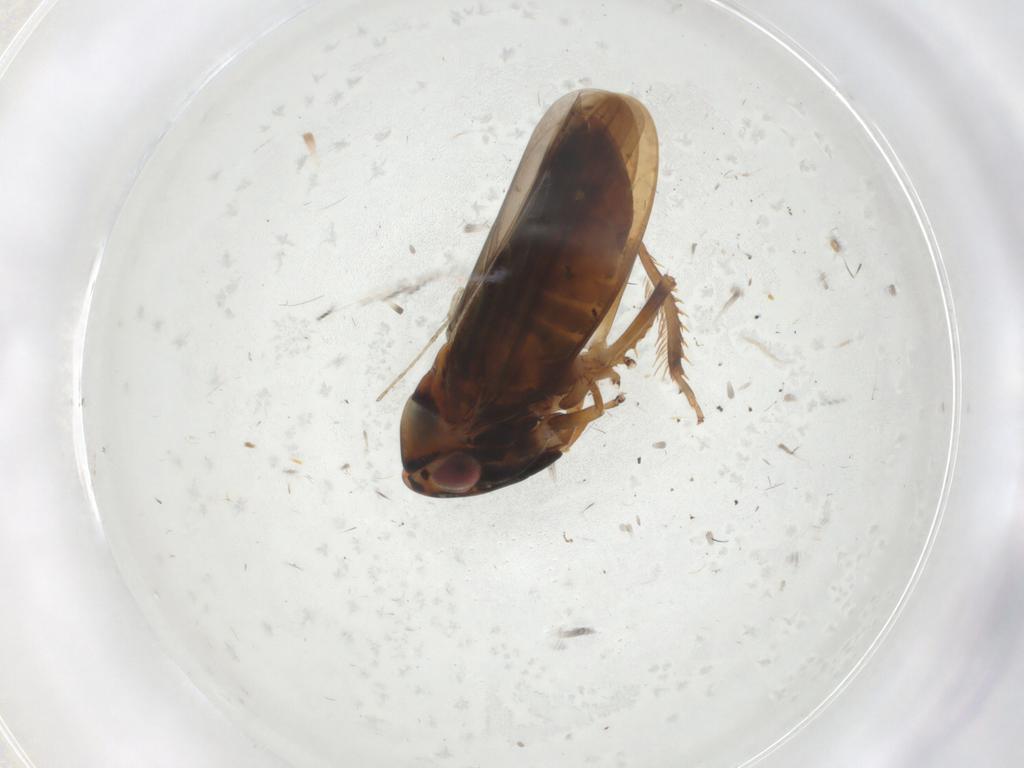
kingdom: Animalia
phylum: Arthropoda
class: Insecta
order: Hemiptera
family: Cicadellidae
